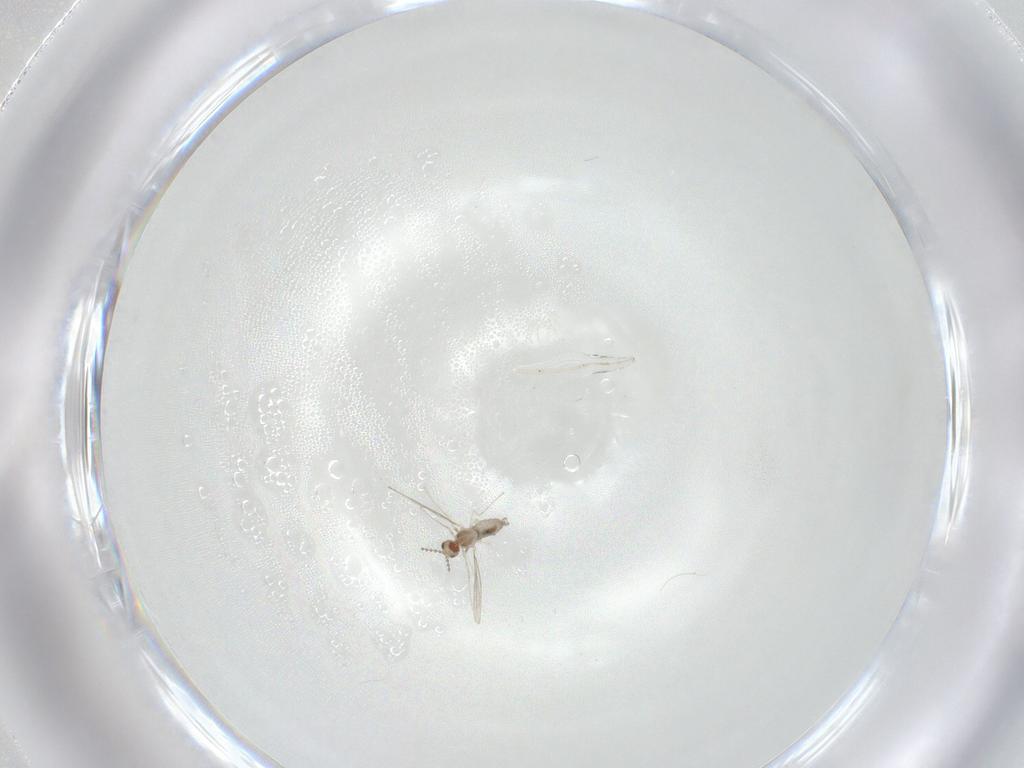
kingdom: Animalia
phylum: Arthropoda
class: Insecta
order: Diptera
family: Cecidomyiidae
